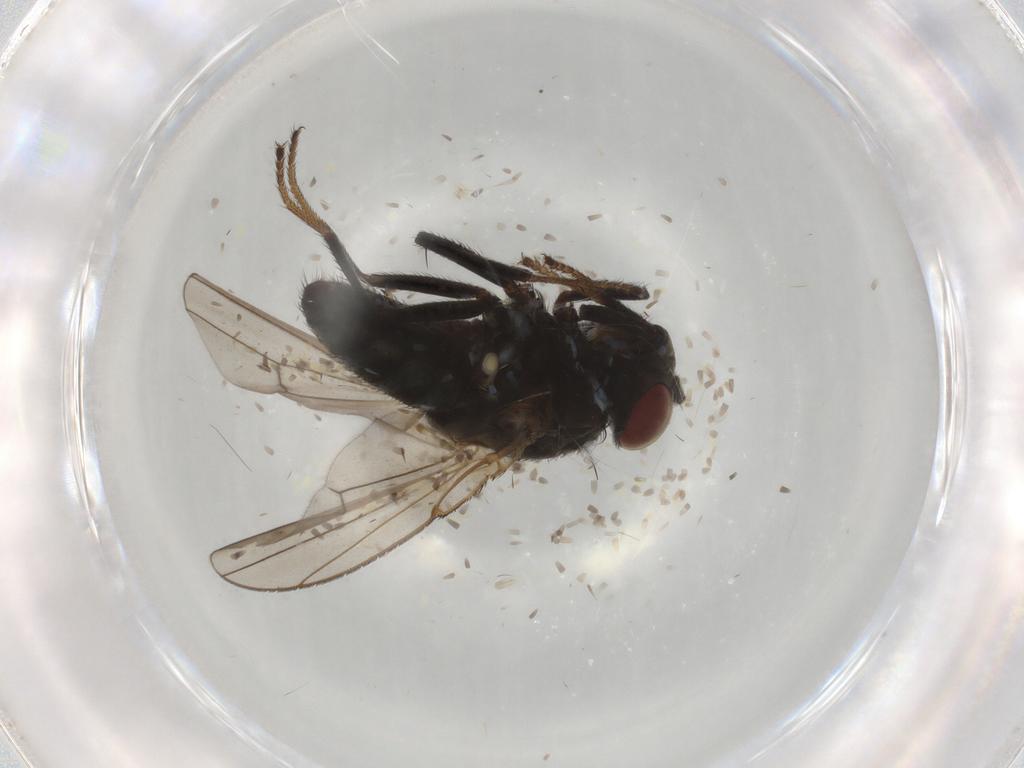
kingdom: Animalia
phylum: Arthropoda
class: Insecta
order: Diptera
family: Ephydridae
